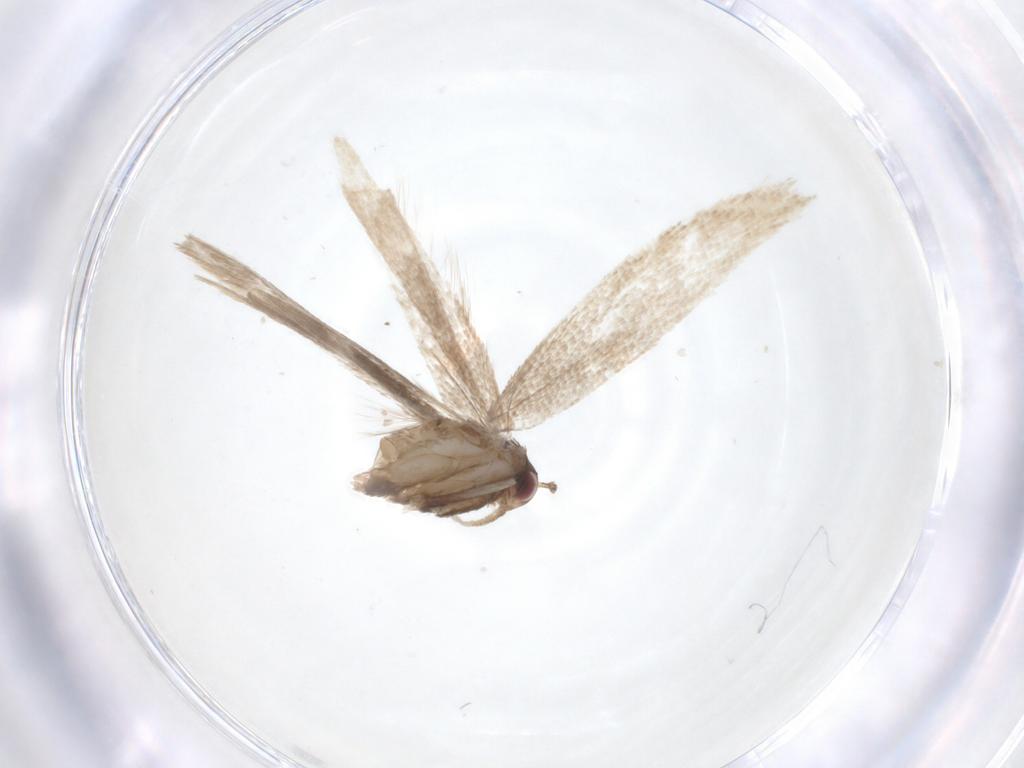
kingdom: Animalia
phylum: Arthropoda
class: Insecta
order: Lepidoptera
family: Gelechiidae
